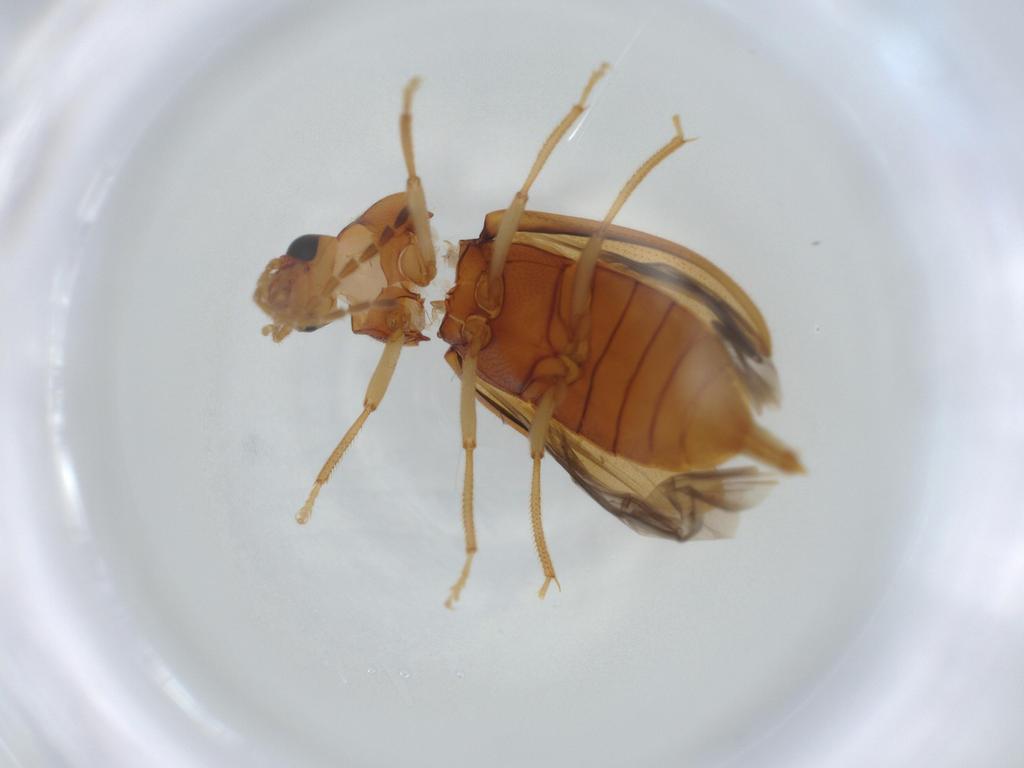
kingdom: Animalia
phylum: Arthropoda
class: Insecta
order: Coleoptera
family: Ptilodactylidae
